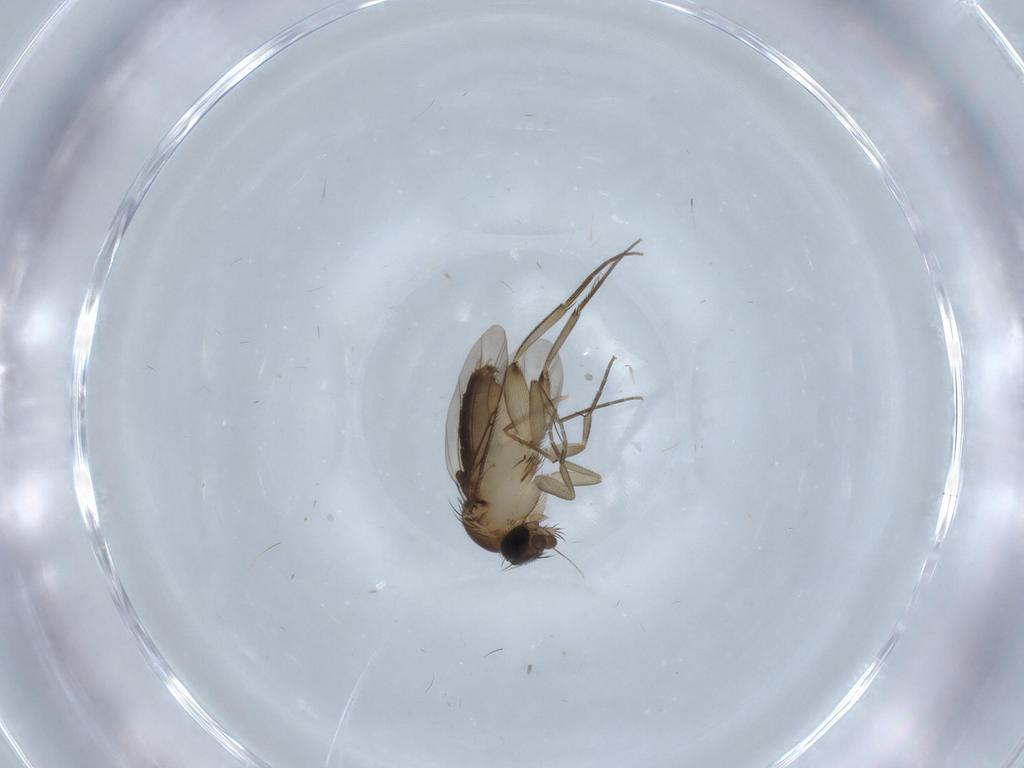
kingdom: Animalia
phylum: Arthropoda
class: Insecta
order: Diptera
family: Phoridae
